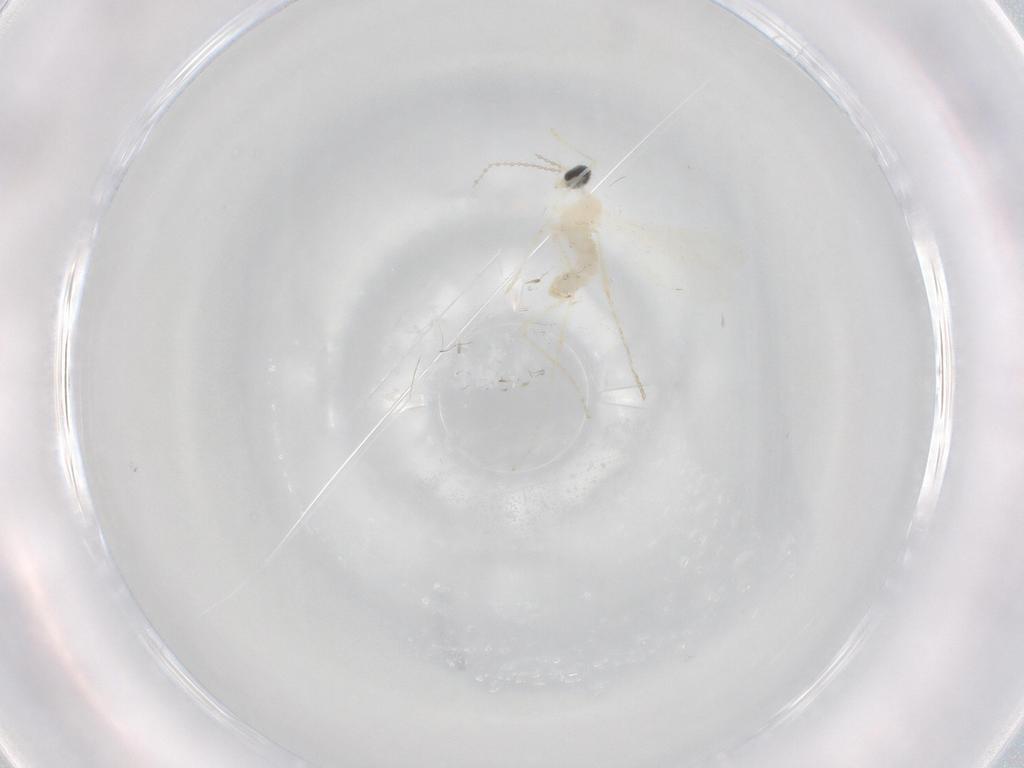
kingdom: Animalia
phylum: Arthropoda
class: Insecta
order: Diptera
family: Cecidomyiidae
